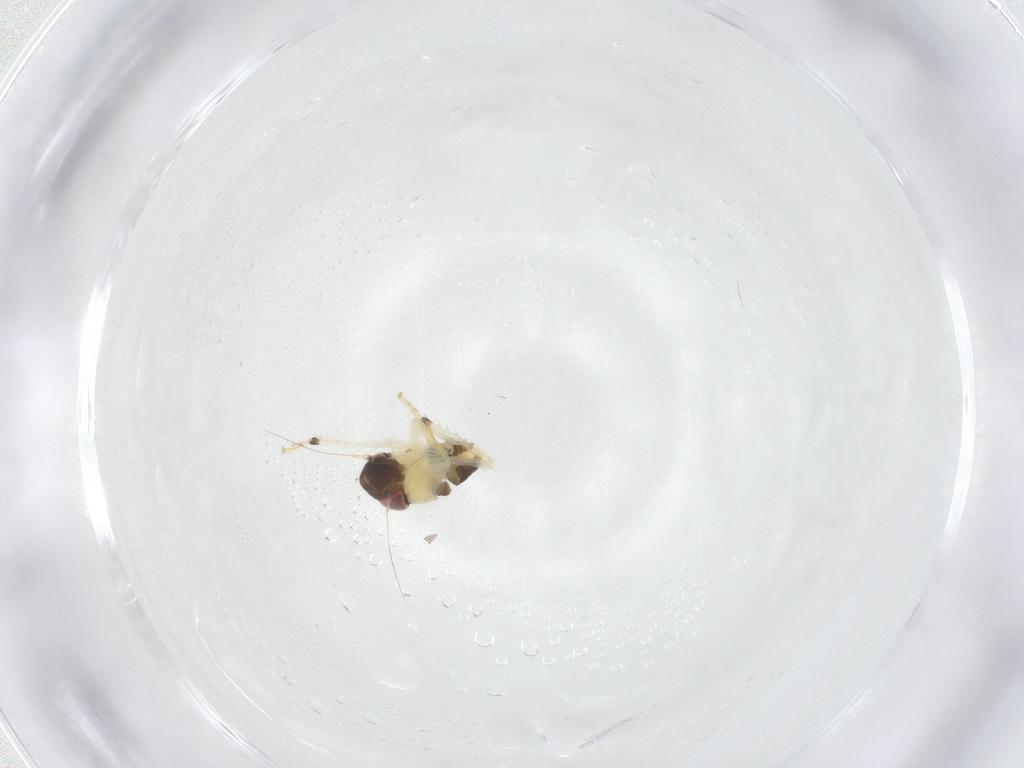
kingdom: Animalia
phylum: Arthropoda
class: Insecta
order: Hemiptera
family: Cicadellidae
